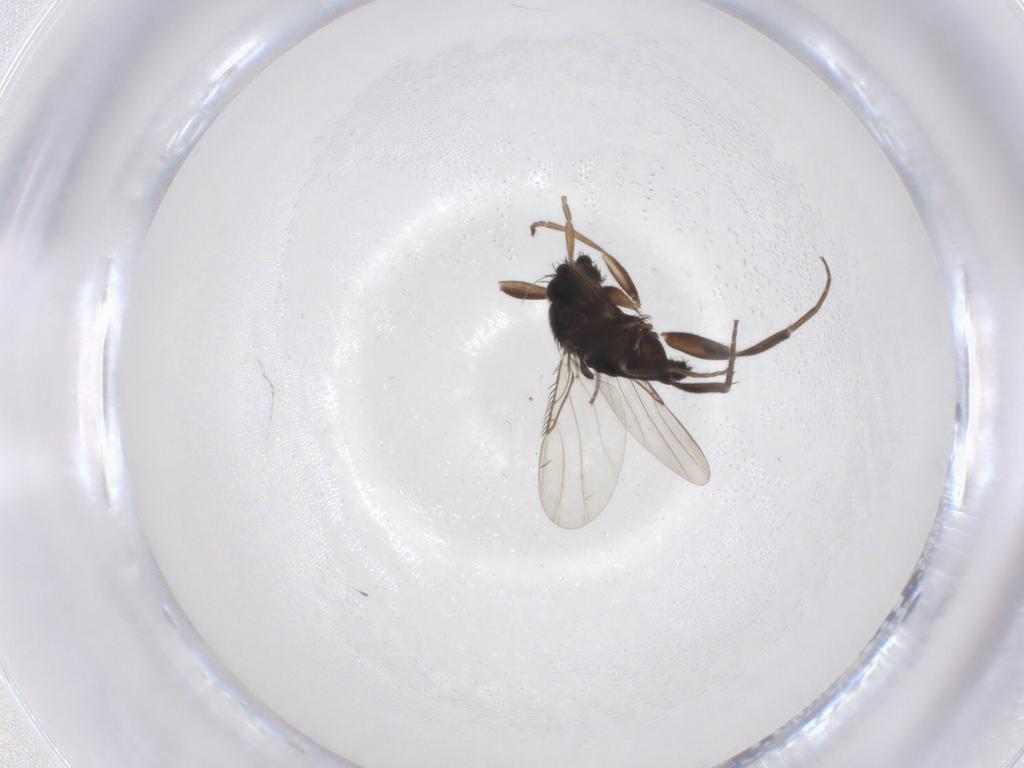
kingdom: Animalia
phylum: Arthropoda
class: Insecta
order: Diptera
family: Phoridae
